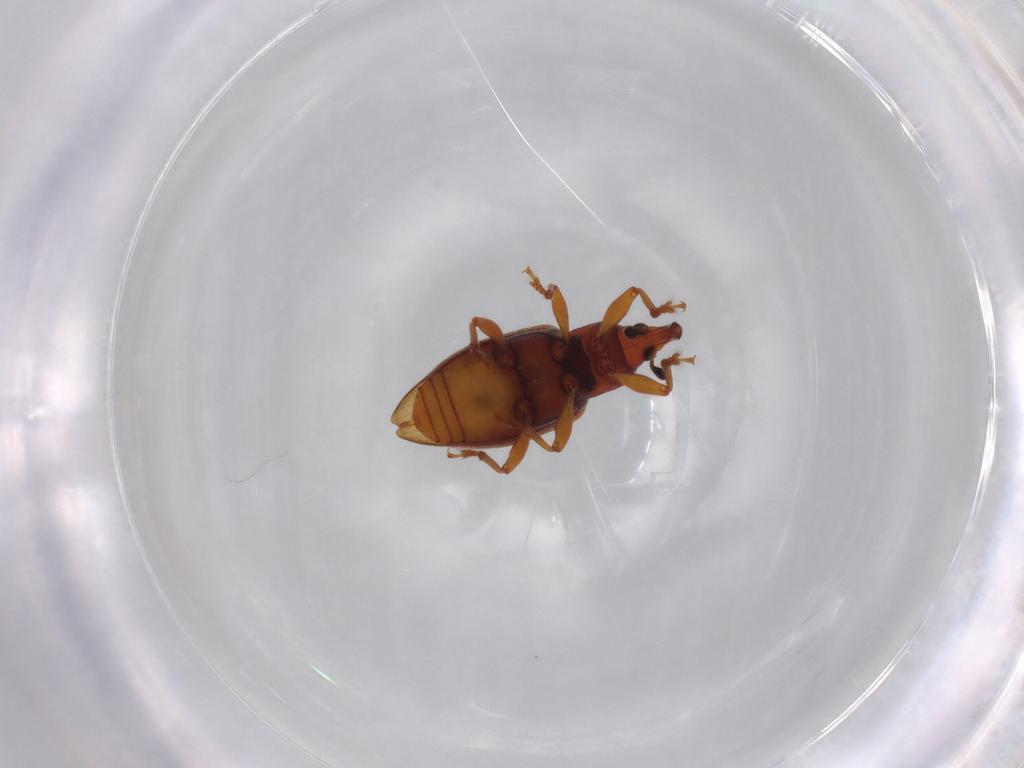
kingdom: Animalia
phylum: Arthropoda
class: Insecta
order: Coleoptera
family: Curculionidae
